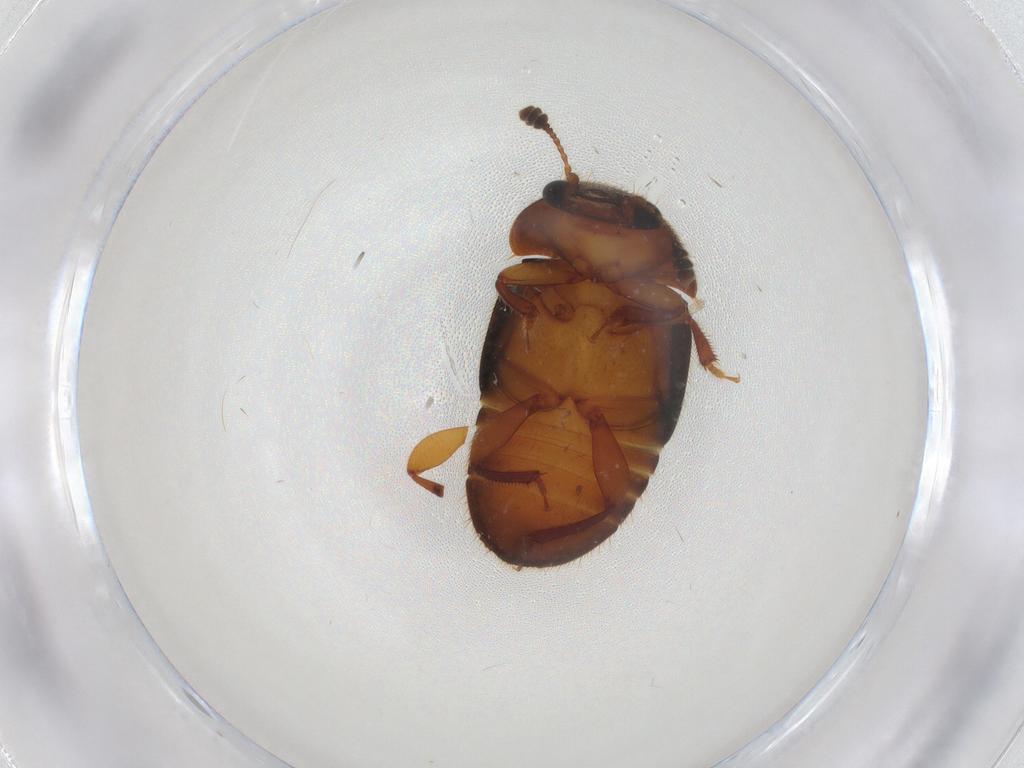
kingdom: Animalia
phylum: Arthropoda
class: Insecta
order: Coleoptera
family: Nitidulidae
